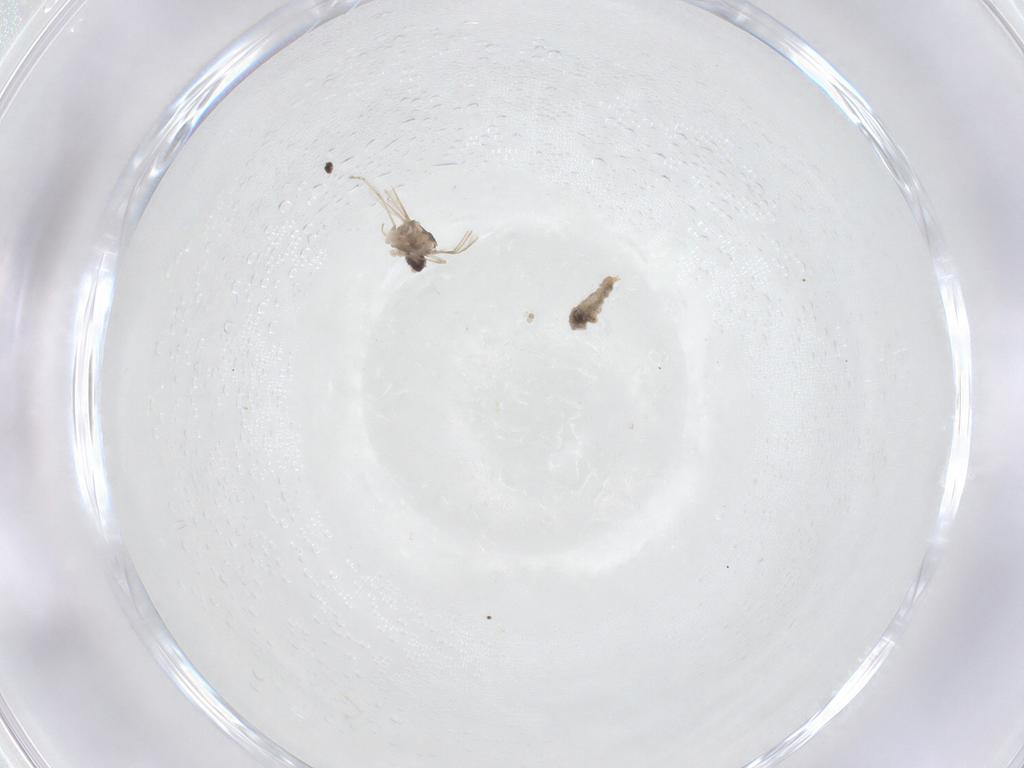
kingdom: Animalia
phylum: Arthropoda
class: Insecta
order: Diptera
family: Cecidomyiidae
